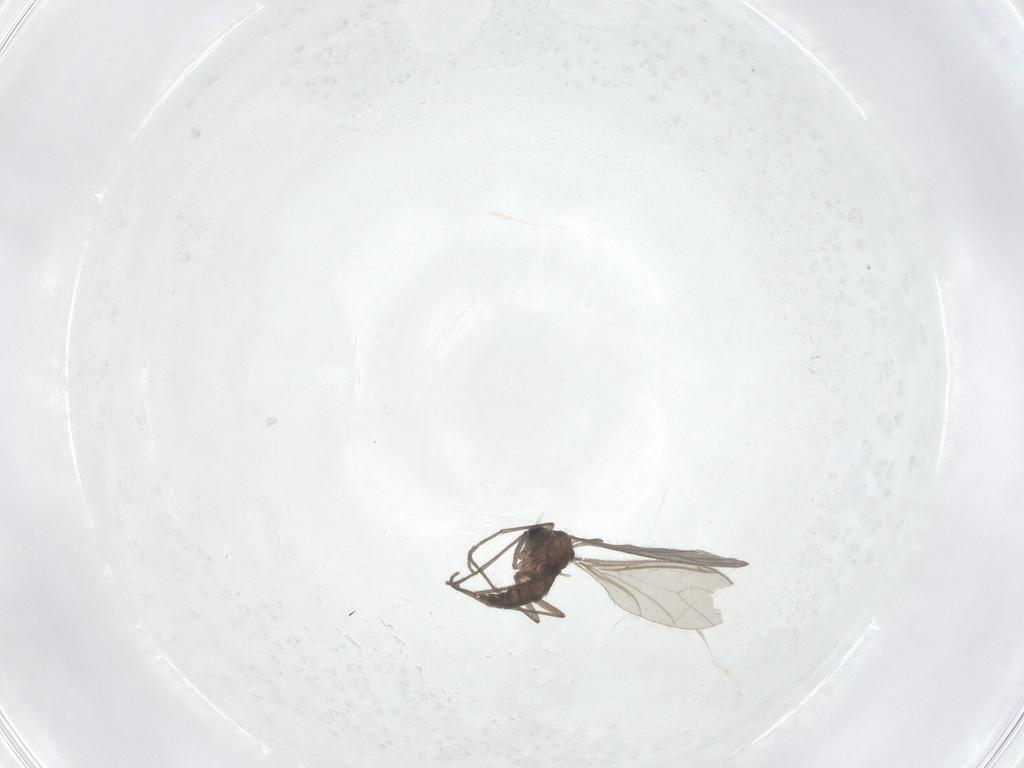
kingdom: Animalia
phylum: Arthropoda
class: Insecta
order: Diptera
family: Sciaridae
